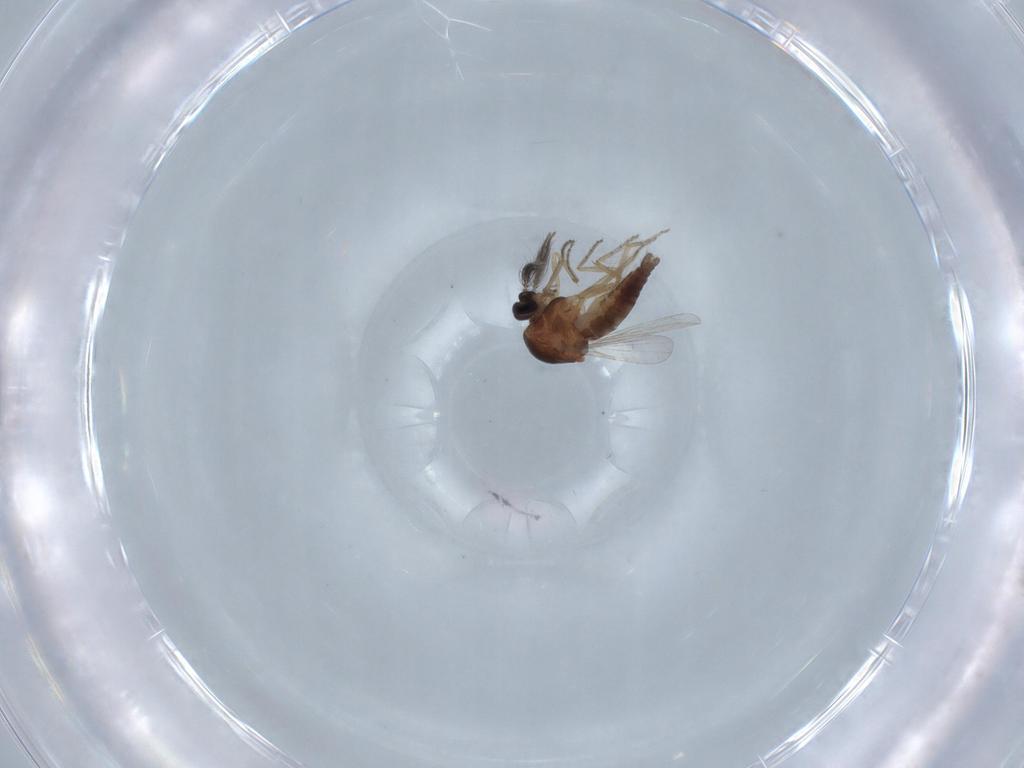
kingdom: Animalia
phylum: Arthropoda
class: Insecta
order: Diptera
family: Ceratopogonidae
